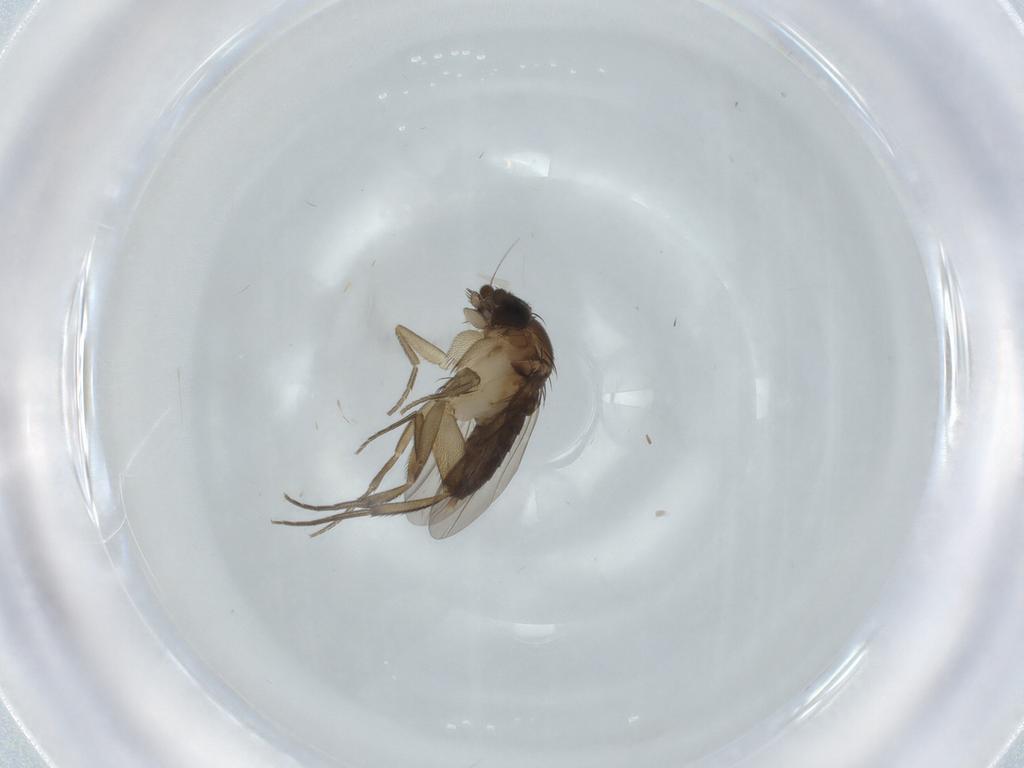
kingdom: Animalia
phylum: Arthropoda
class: Insecta
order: Diptera
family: Phoridae
